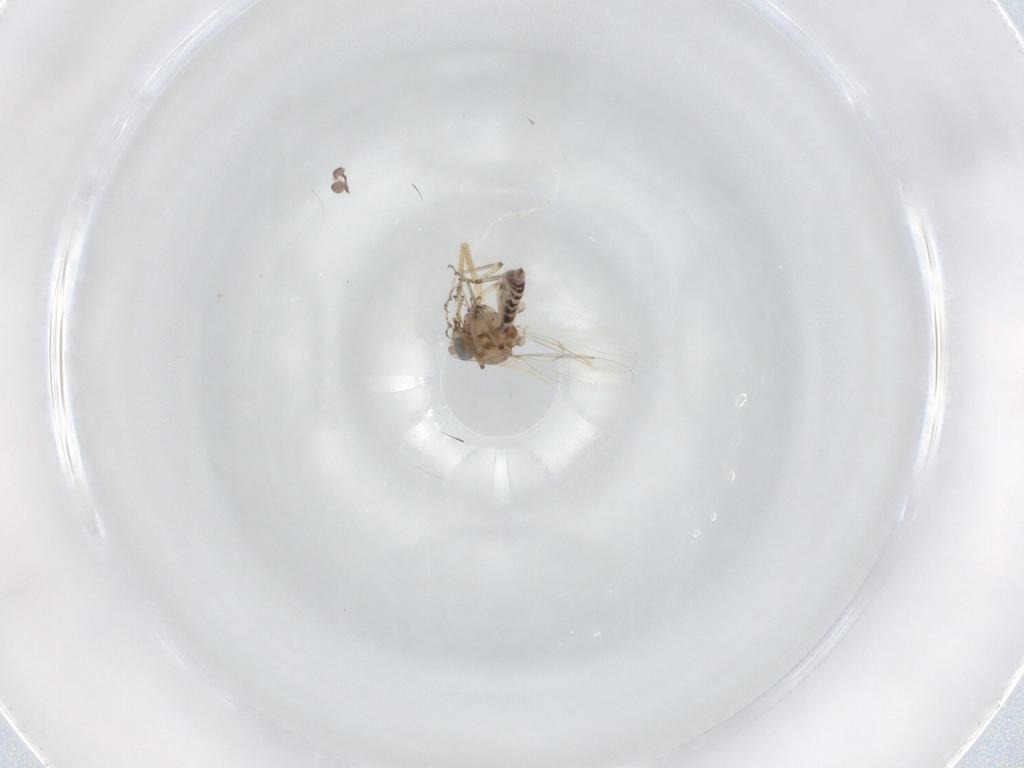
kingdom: Animalia
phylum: Arthropoda
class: Insecta
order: Diptera
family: Ceratopogonidae
